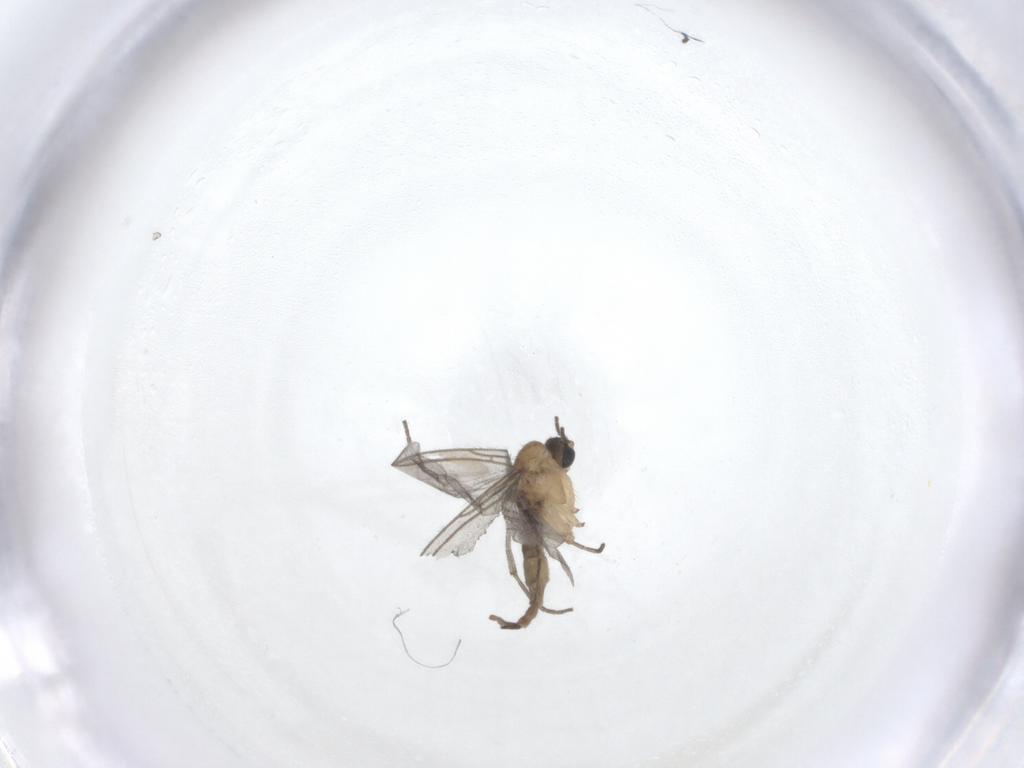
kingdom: Animalia
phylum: Arthropoda
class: Insecta
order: Diptera
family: Sciaridae
